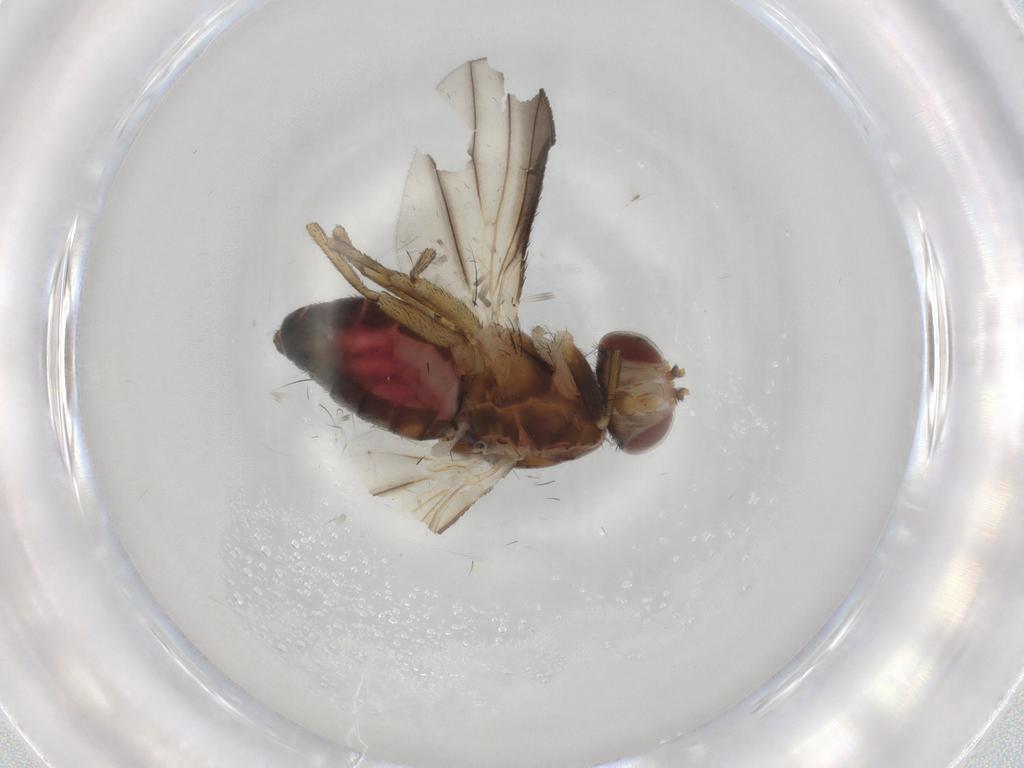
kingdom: Animalia
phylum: Arthropoda
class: Insecta
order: Diptera
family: Heleomyzidae
